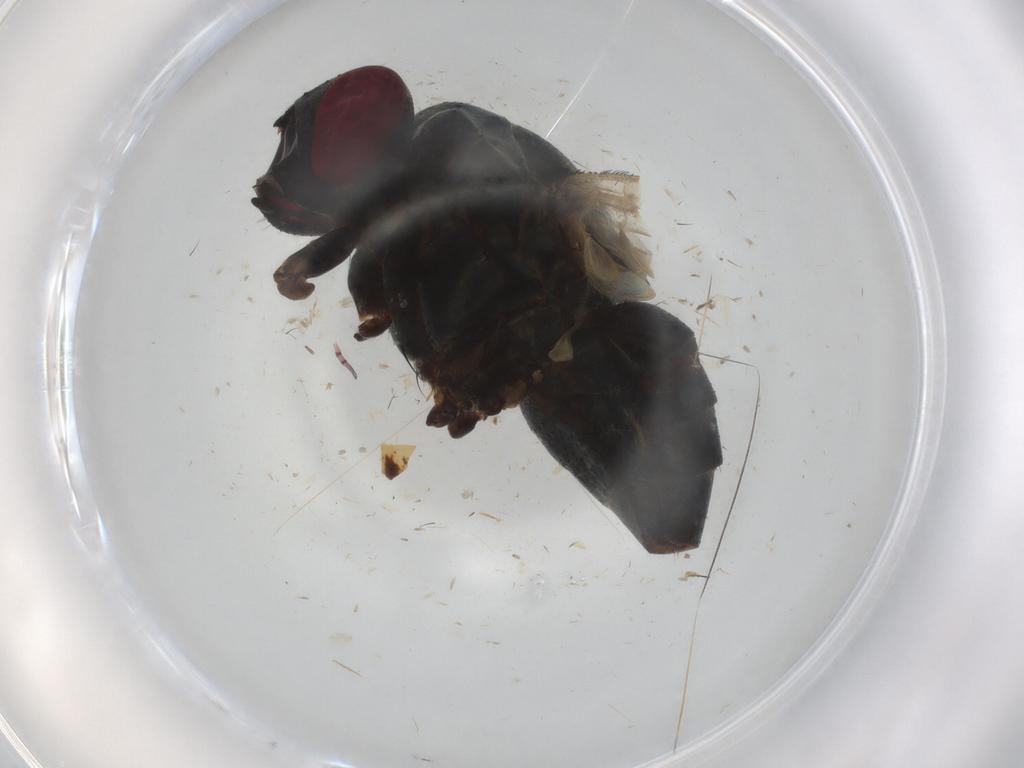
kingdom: Animalia
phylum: Arthropoda
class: Insecta
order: Diptera
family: Muscidae
